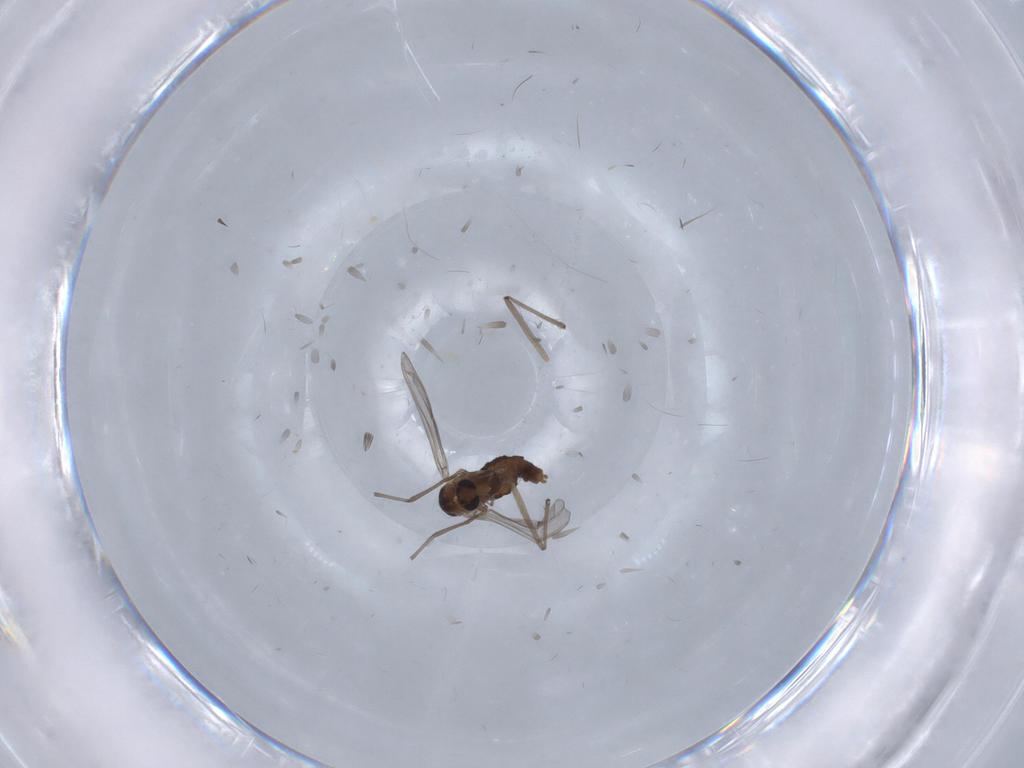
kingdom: Animalia
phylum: Arthropoda
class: Insecta
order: Diptera
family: Chironomidae
